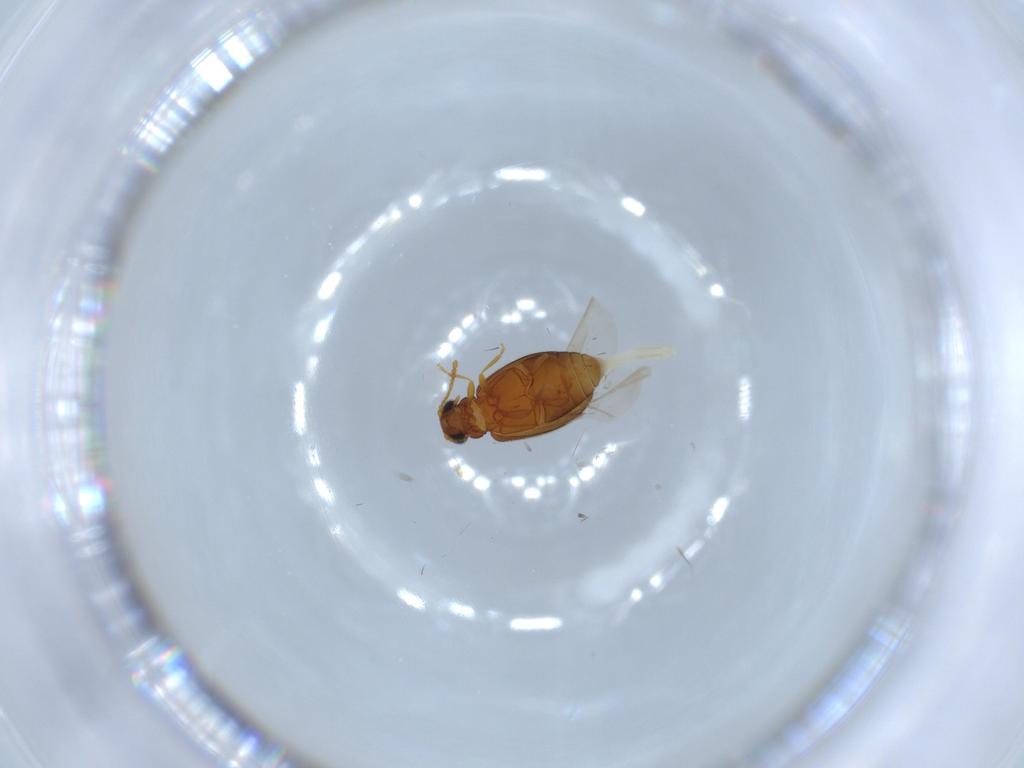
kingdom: Animalia
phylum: Arthropoda
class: Insecta
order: Coleoptera
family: Aderidae
